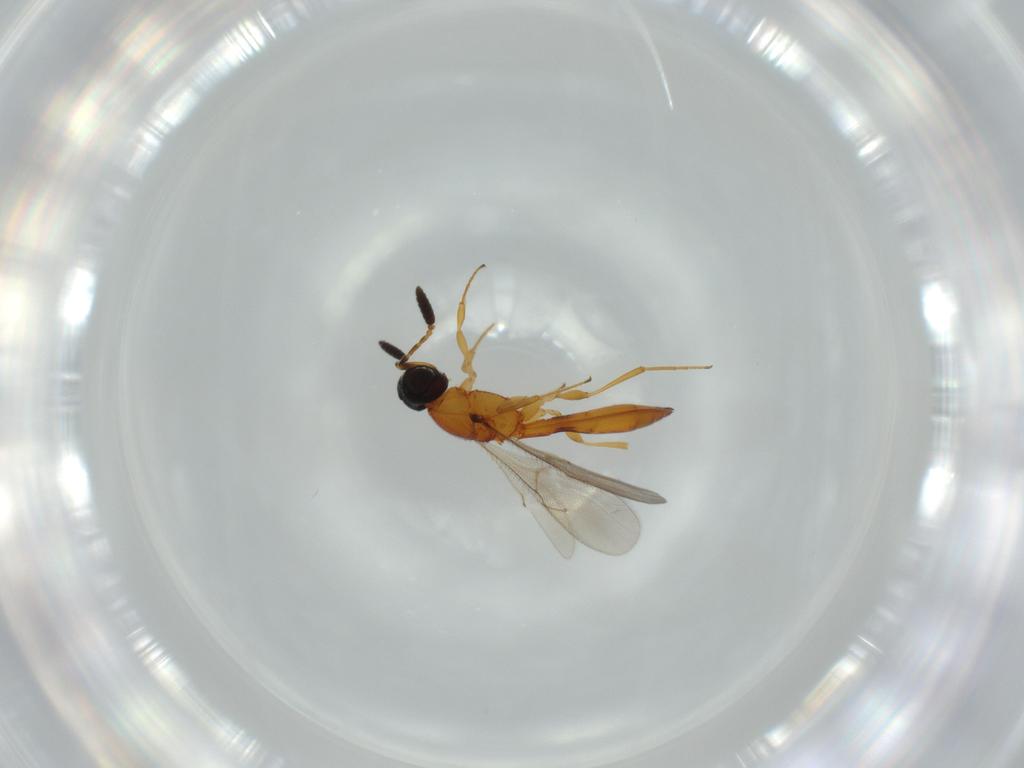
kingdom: Animalia
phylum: Arthropoda
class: Insecta
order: Hymenoptera
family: Scelionidae
